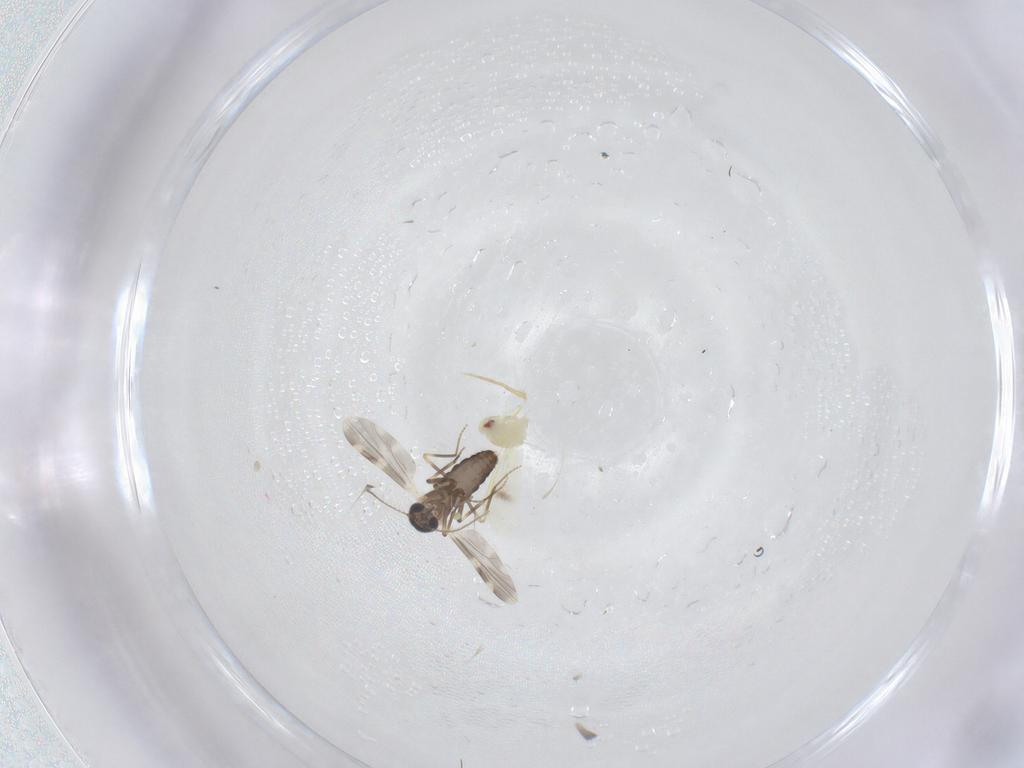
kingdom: Animalia
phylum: Arthropoda
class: Insecta
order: Diptera
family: Ceratopogonidae
